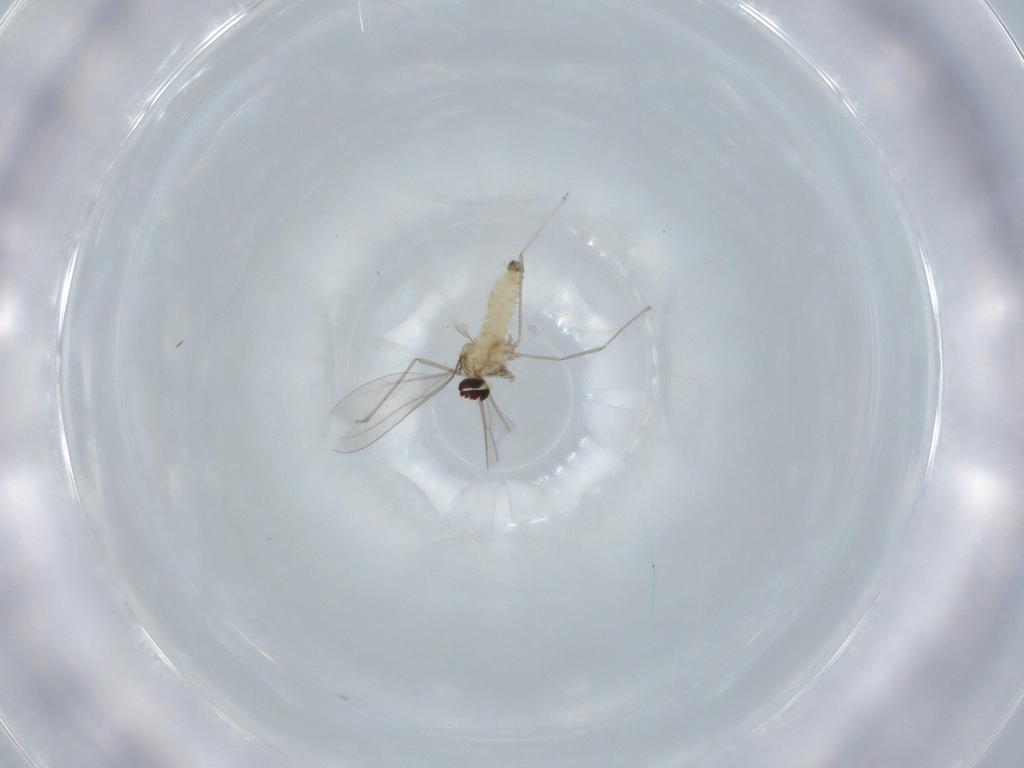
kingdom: Animalia
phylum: Arthropoda
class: Insecta
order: Diptera
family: Cecidomyiidae
